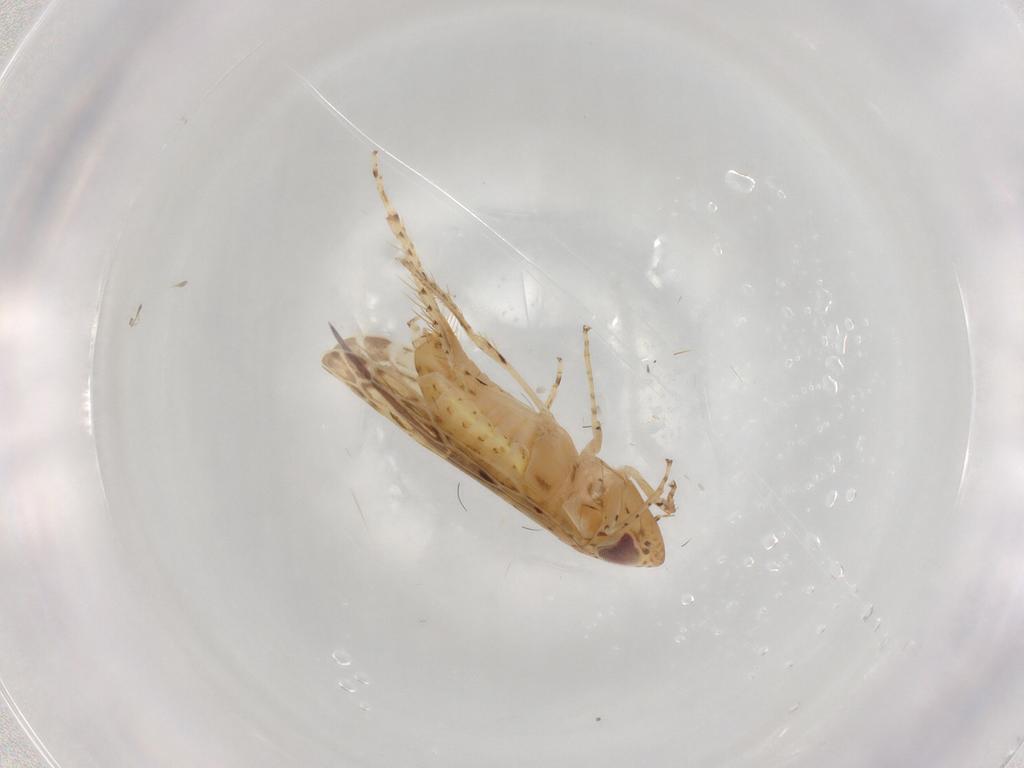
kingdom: Animalia
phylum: Arthropoda
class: Insecta
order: Hemiptera
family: Cicadellidae
